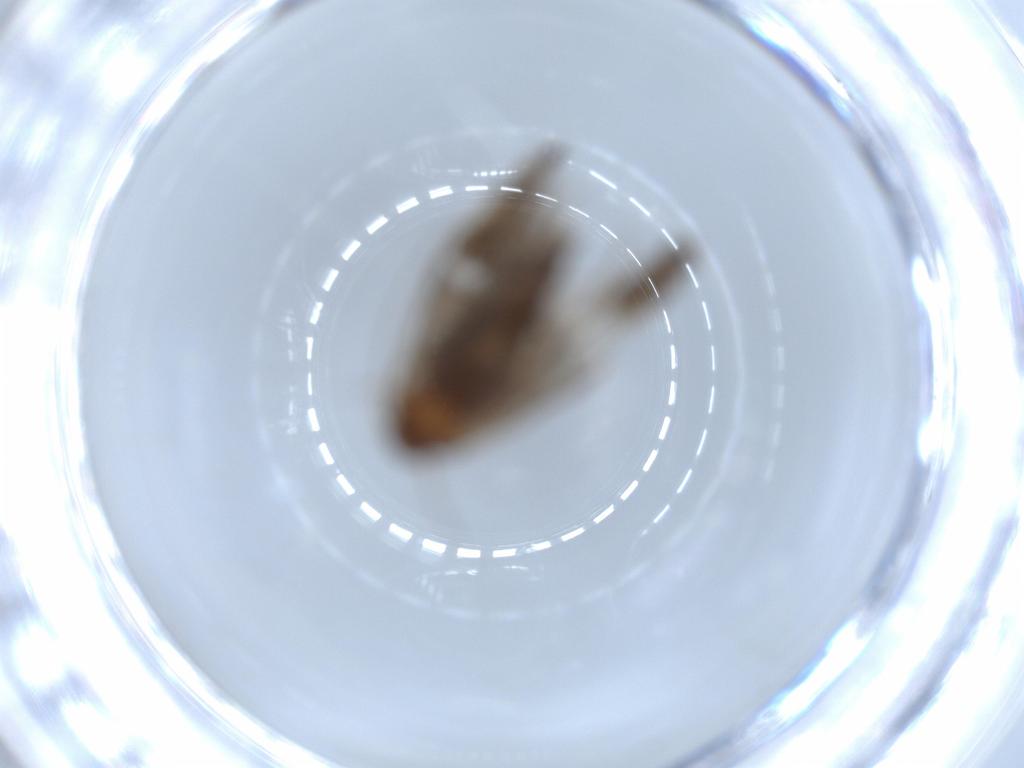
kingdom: Animalia
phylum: Arthropoda
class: Insecta
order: Lepidoptera
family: Gelechiidae
